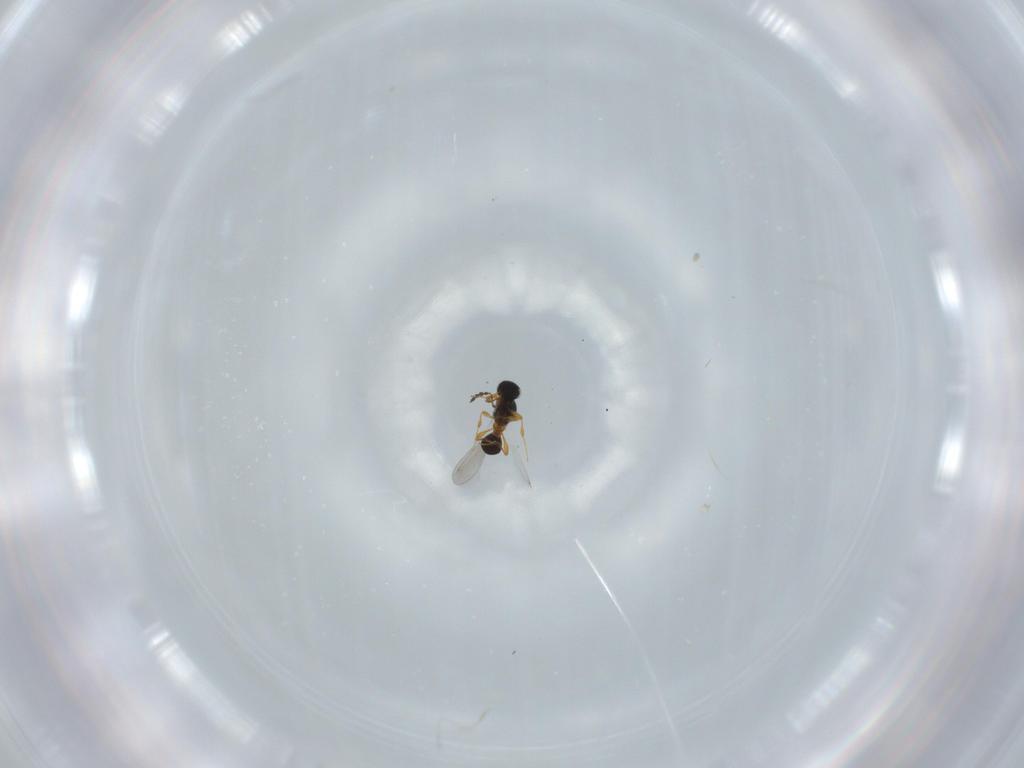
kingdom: Animalia
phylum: Arthropoda
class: Insecta
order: Hymenoptera
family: Platygastridae
